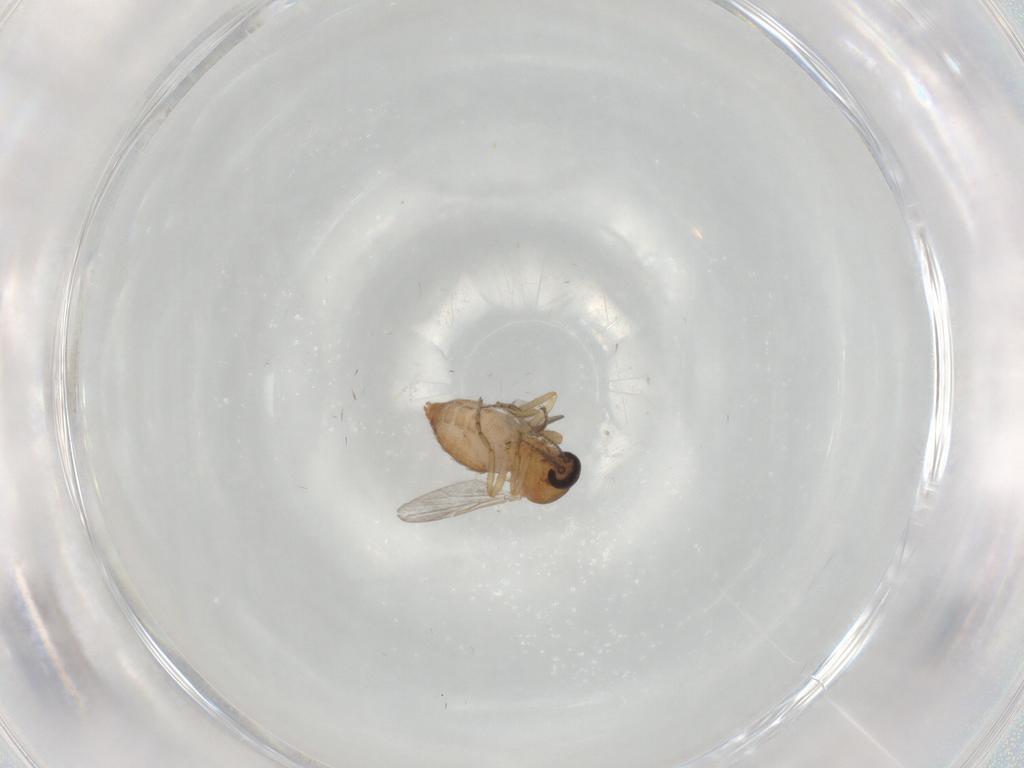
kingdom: Animalia
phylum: Arthropoda
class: Insecta
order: Diptera
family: Ceratopogonidae
